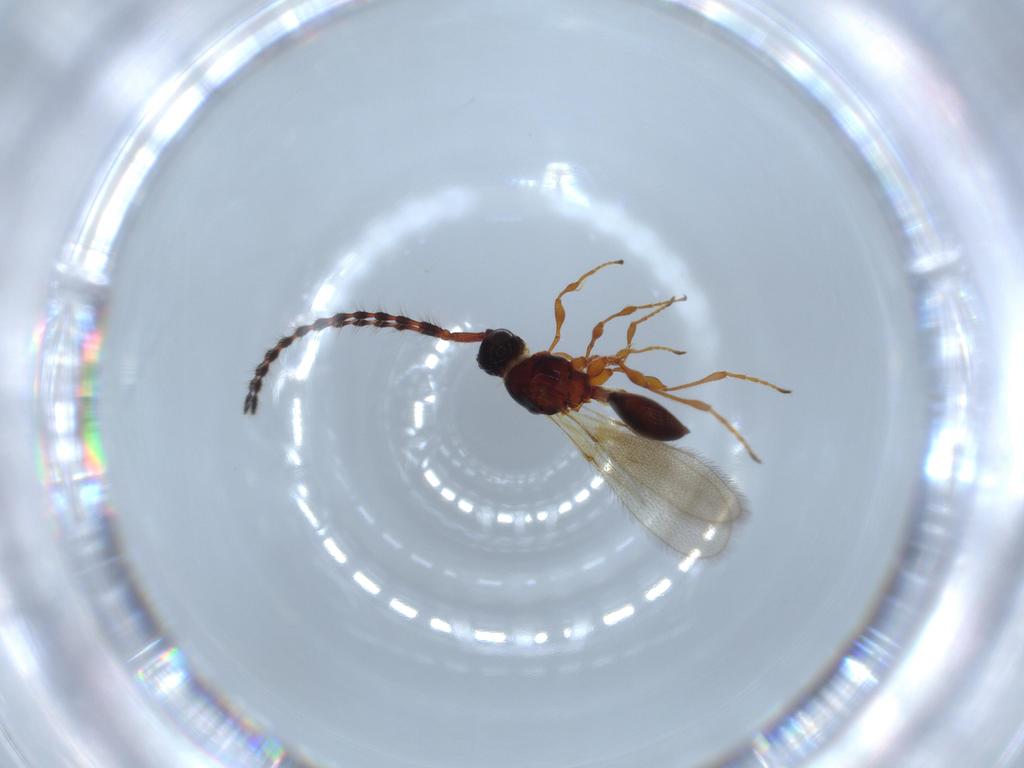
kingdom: Animalia
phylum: Arthropoda
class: Insecta
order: Hymenoptera
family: Diapriidae
